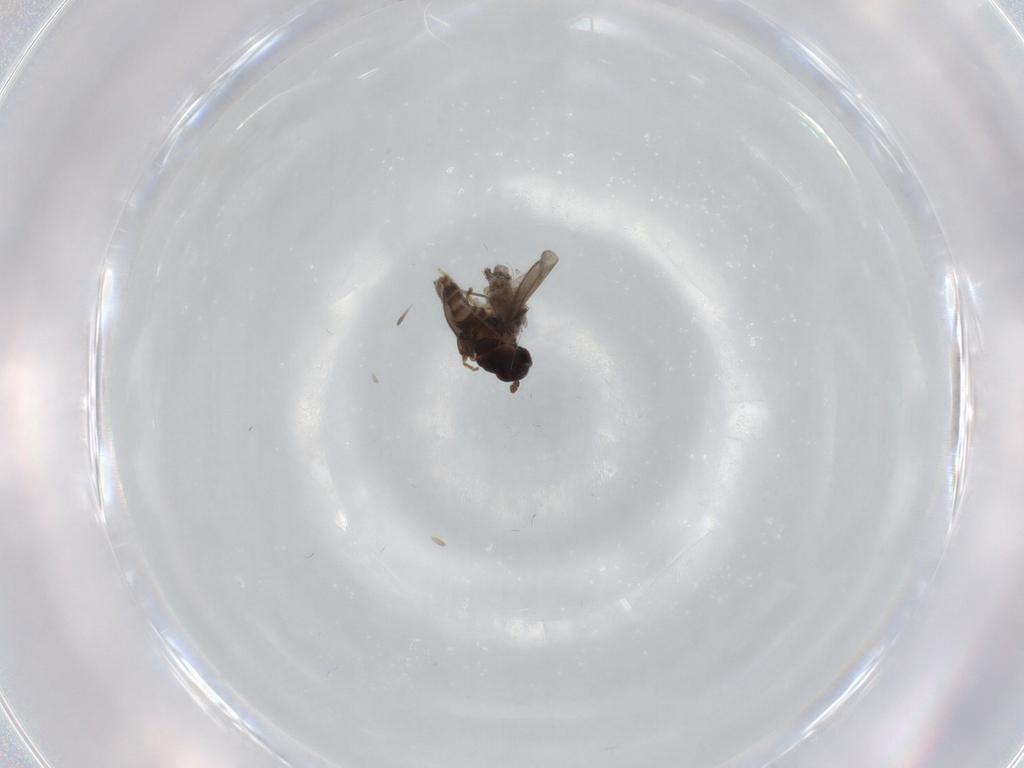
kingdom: Animalia
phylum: Arthropoda
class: Insecta
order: Diptera
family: Sphaeroceridae
